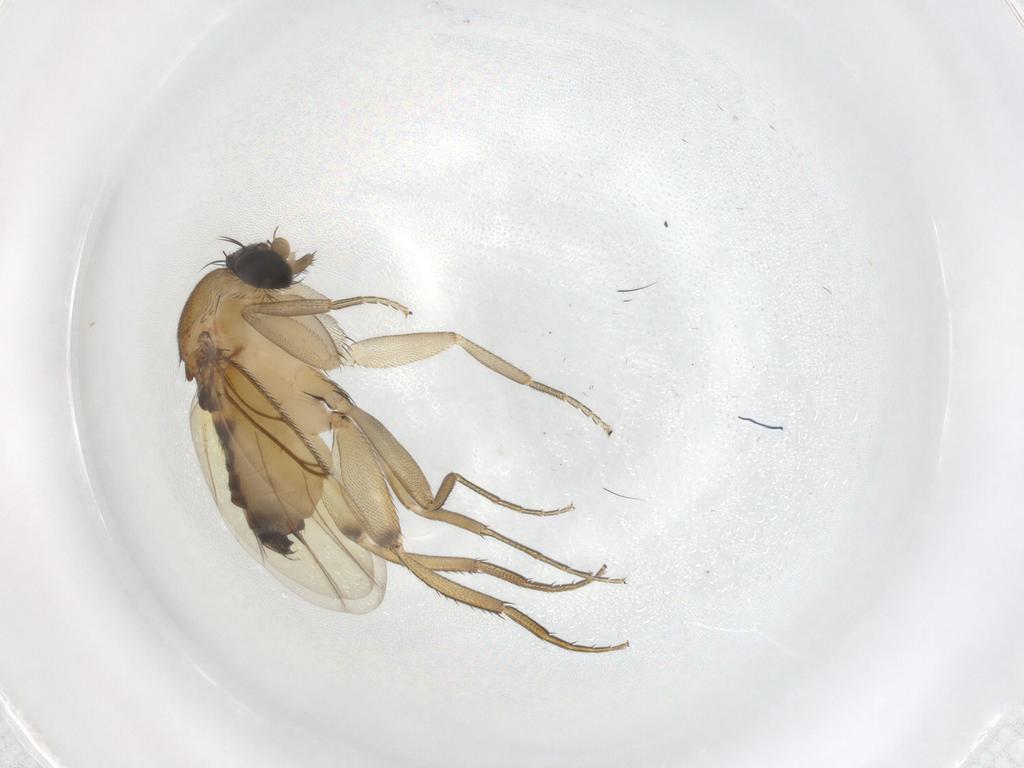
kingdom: Animalia
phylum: Arthropoda
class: Insecta
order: Diptera
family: Phoridae
